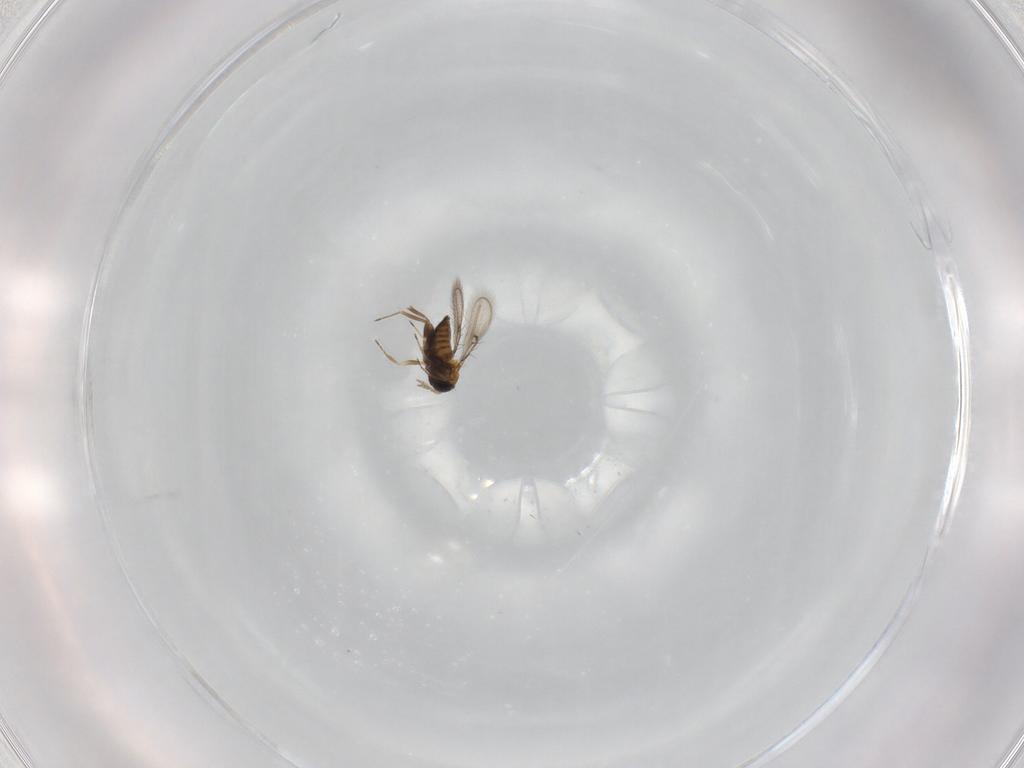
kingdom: Animalia
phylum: Arthropoda
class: Insecta
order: Hymenoptera
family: Trichogrammatidae
